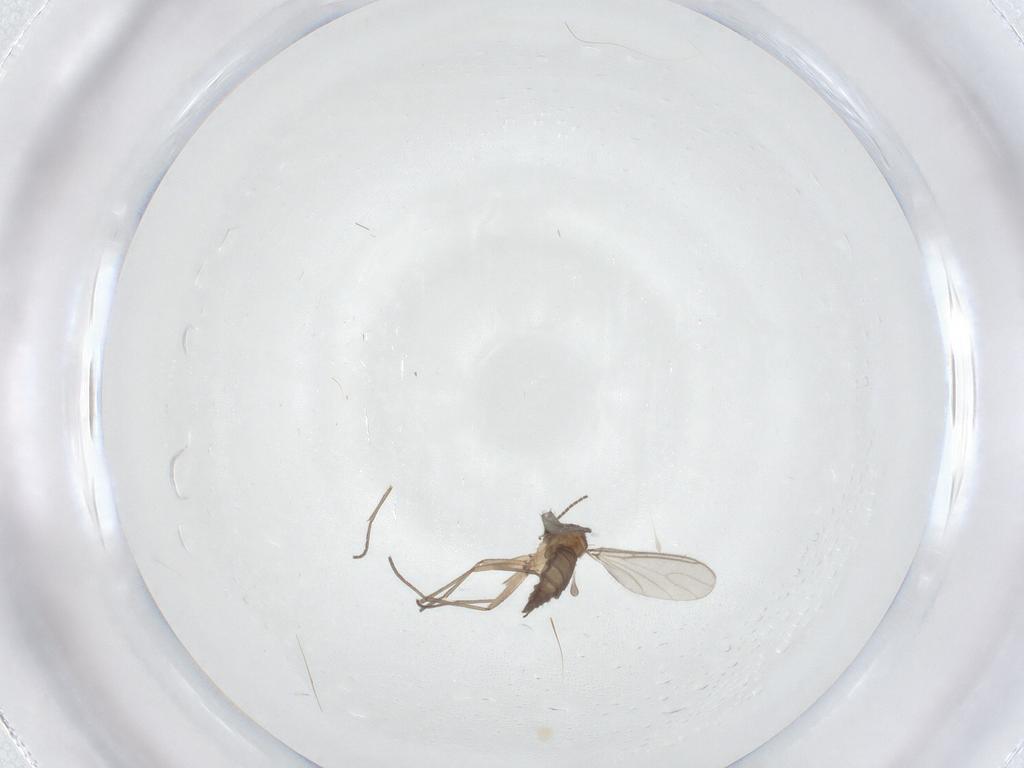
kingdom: Animalia
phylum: Arthropoda
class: Insecta
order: Diptera
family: Sciaridae
